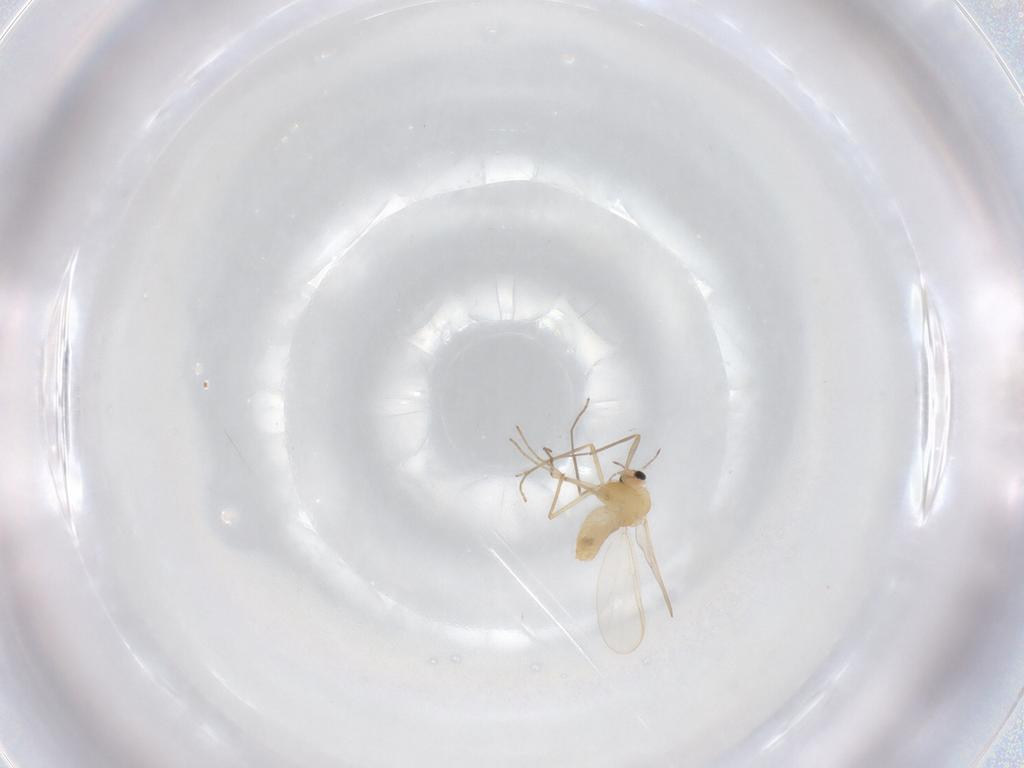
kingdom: Animalia
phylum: Arthropoda
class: Insecta
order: Diptera
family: Chironomidae
